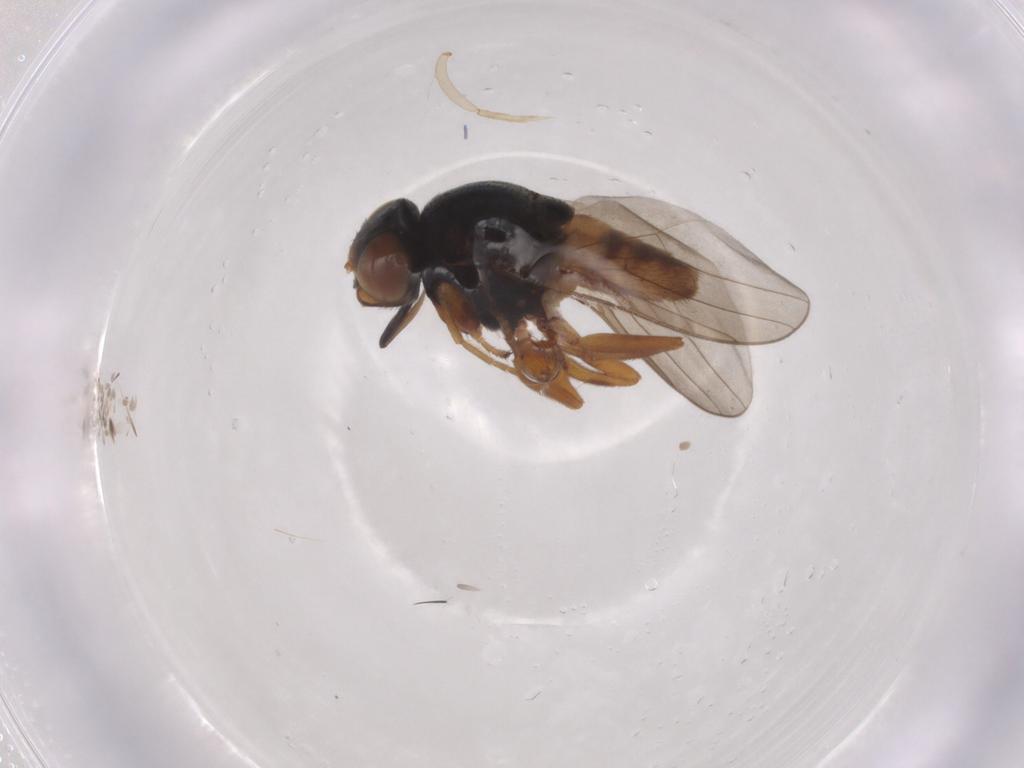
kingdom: Animalia
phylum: Arthropoda
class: Insecta
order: Diptera
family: Chloropidae
